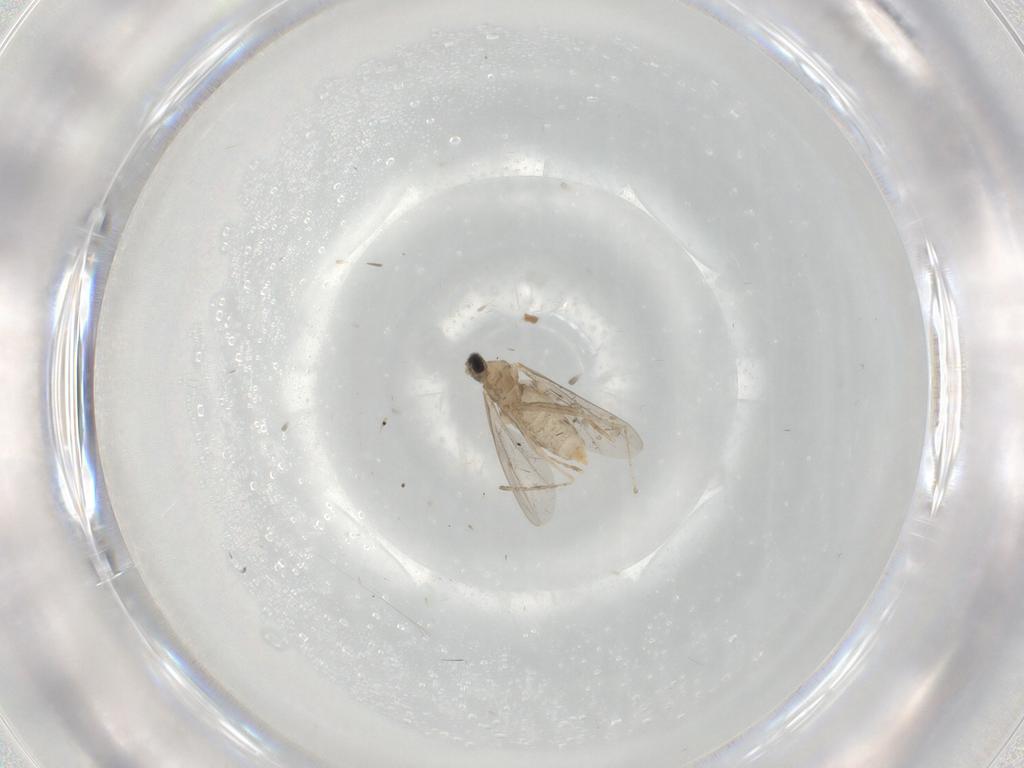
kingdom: Animalia
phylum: Arthropoda
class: Insecta
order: Diptera
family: Cecidomyiidae
